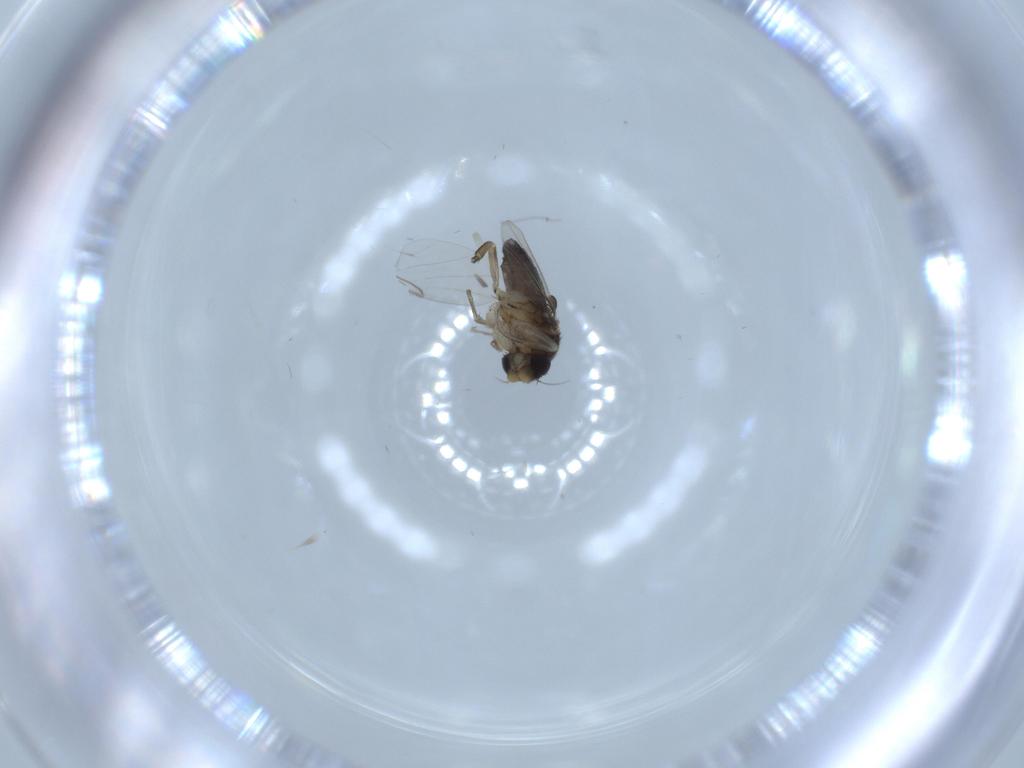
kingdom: Animalia
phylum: Arthropoda
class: Insecta
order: Diptera
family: Phoridae
